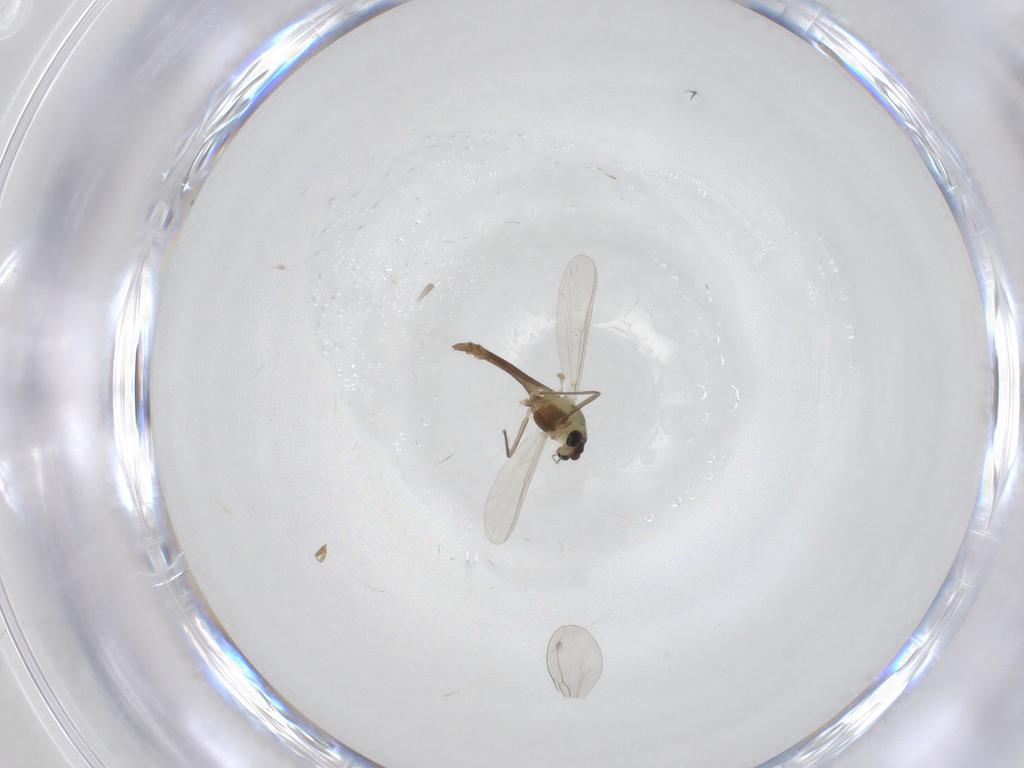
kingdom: Animalia
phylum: Arthropoda
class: Insecta
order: Diptera
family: Chironomidae
